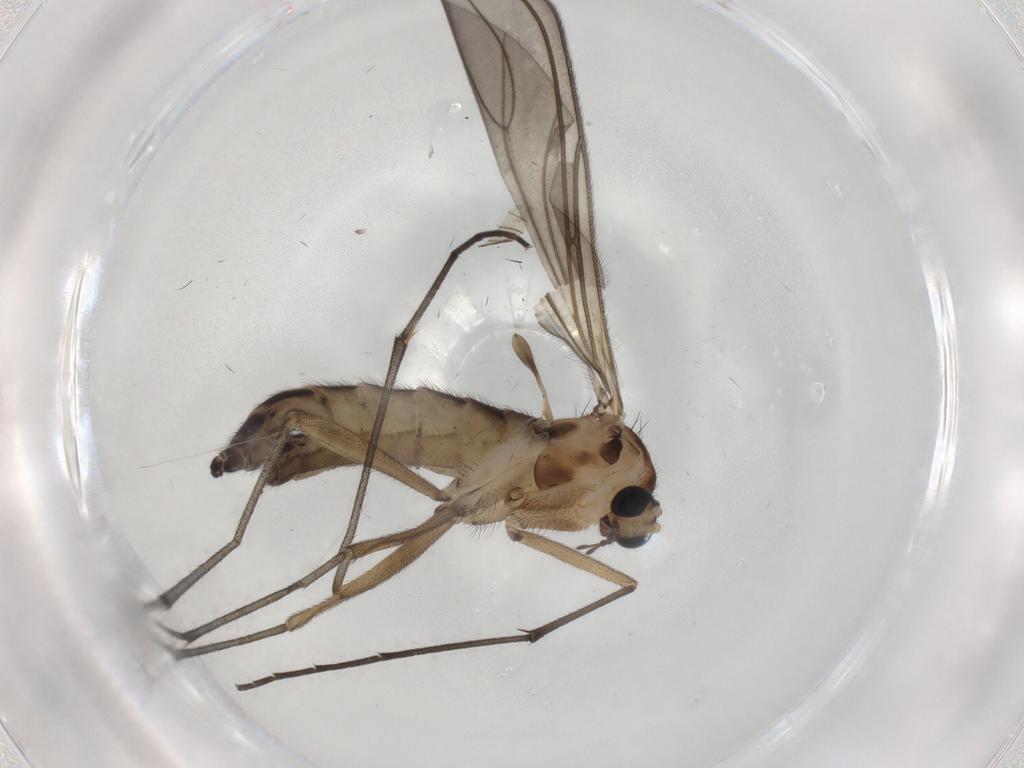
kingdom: Animalia
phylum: Arthropoda
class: Insecta
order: Diptera
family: Sciaridae
